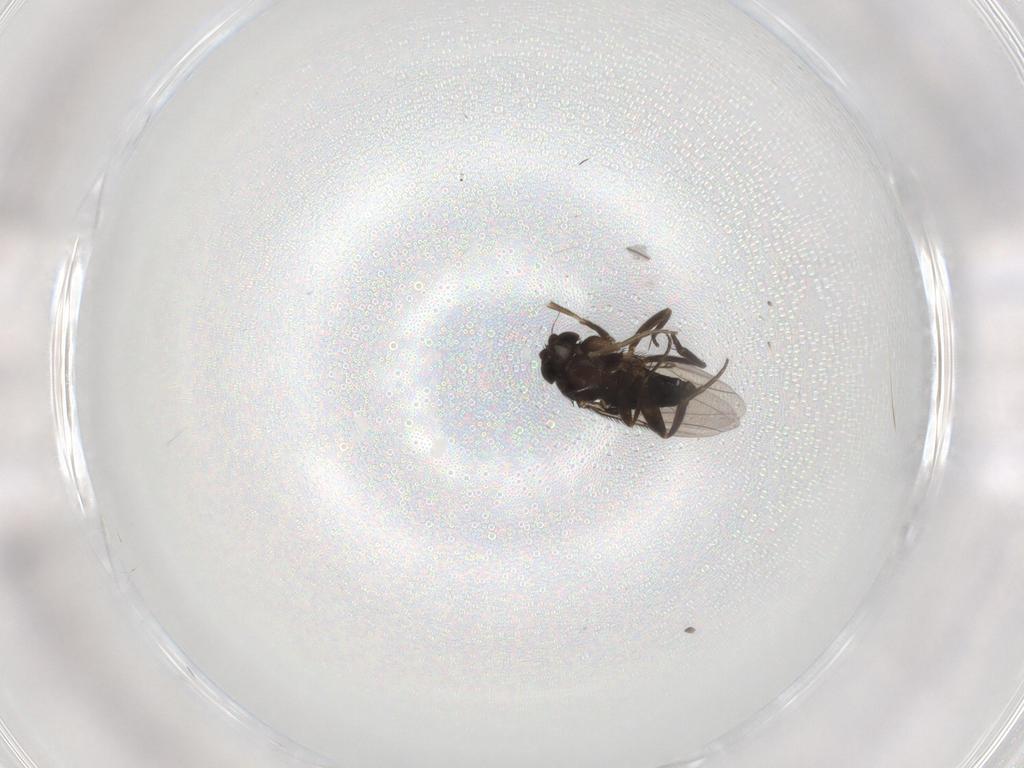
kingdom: Animalia
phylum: Arthropoda
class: Insecta
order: Diptera
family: Phoridae
